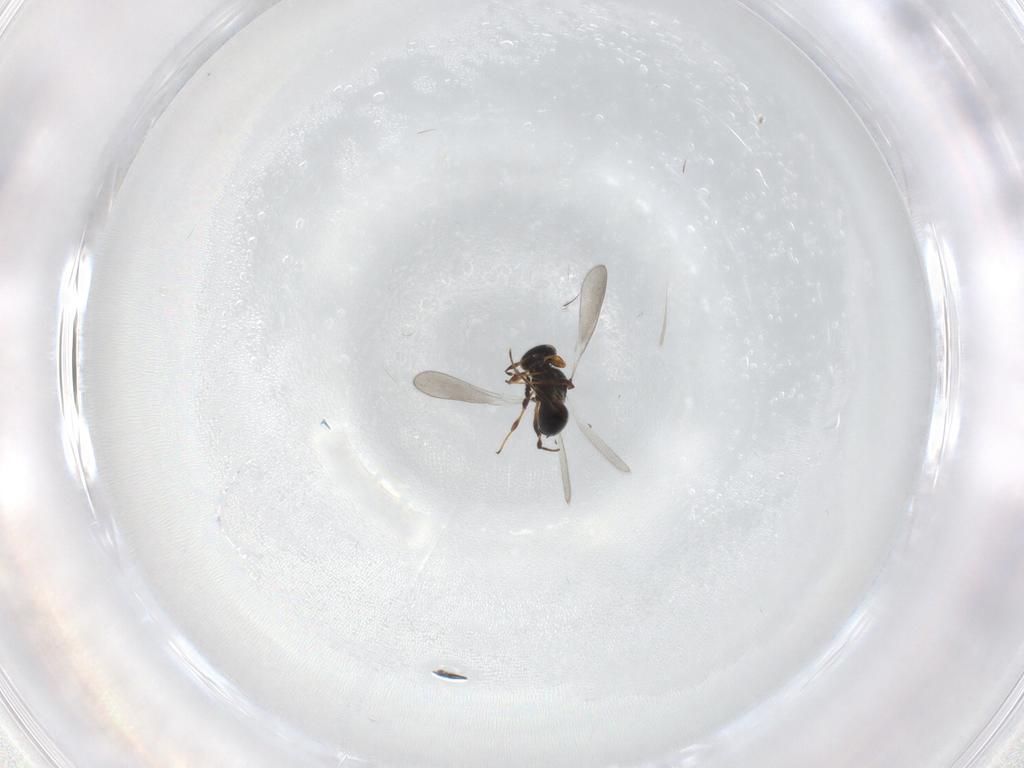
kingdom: Animalia
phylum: Arthropoda
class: Insecta
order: Hymenoptera
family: Platygastridae
